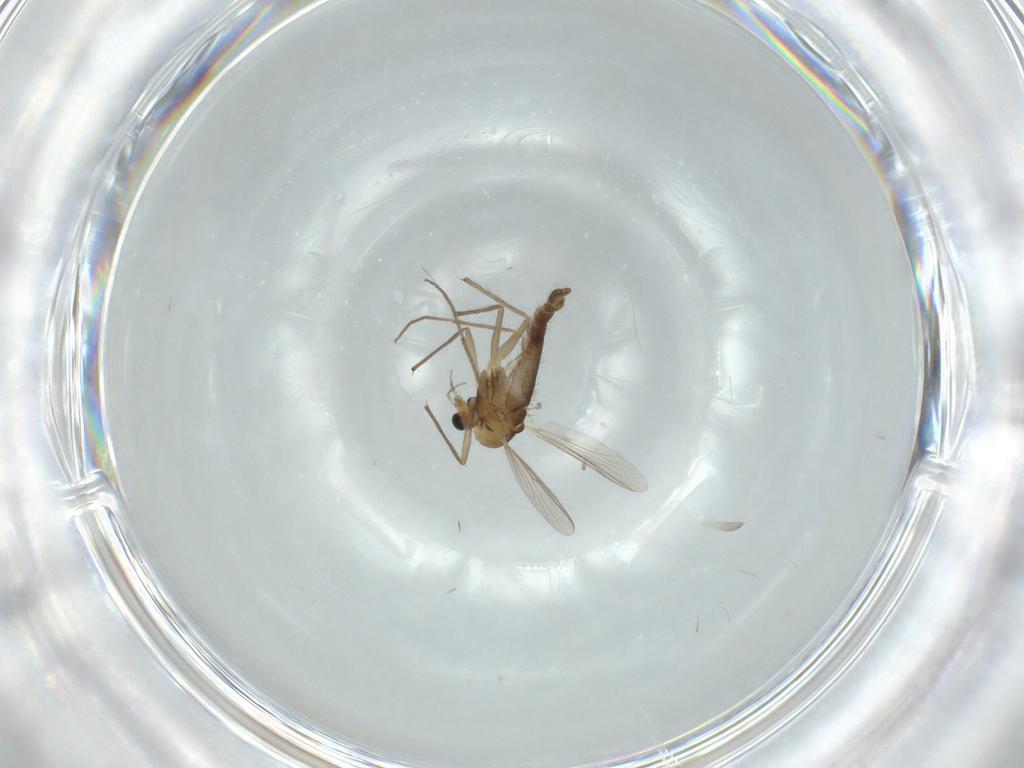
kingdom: Animalia
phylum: Arthropoda
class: Insecta
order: Diptera
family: Chironomidae
